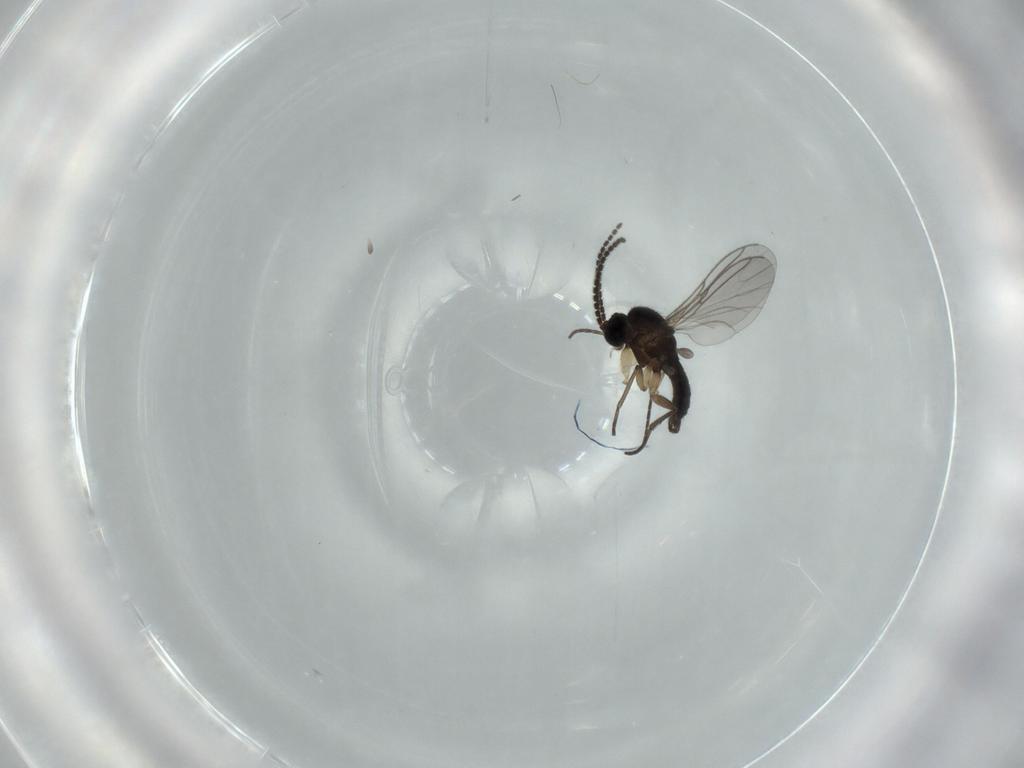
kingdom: Animalia
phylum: Arthropoda
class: Insecta
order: Diptera
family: Sciaridae
